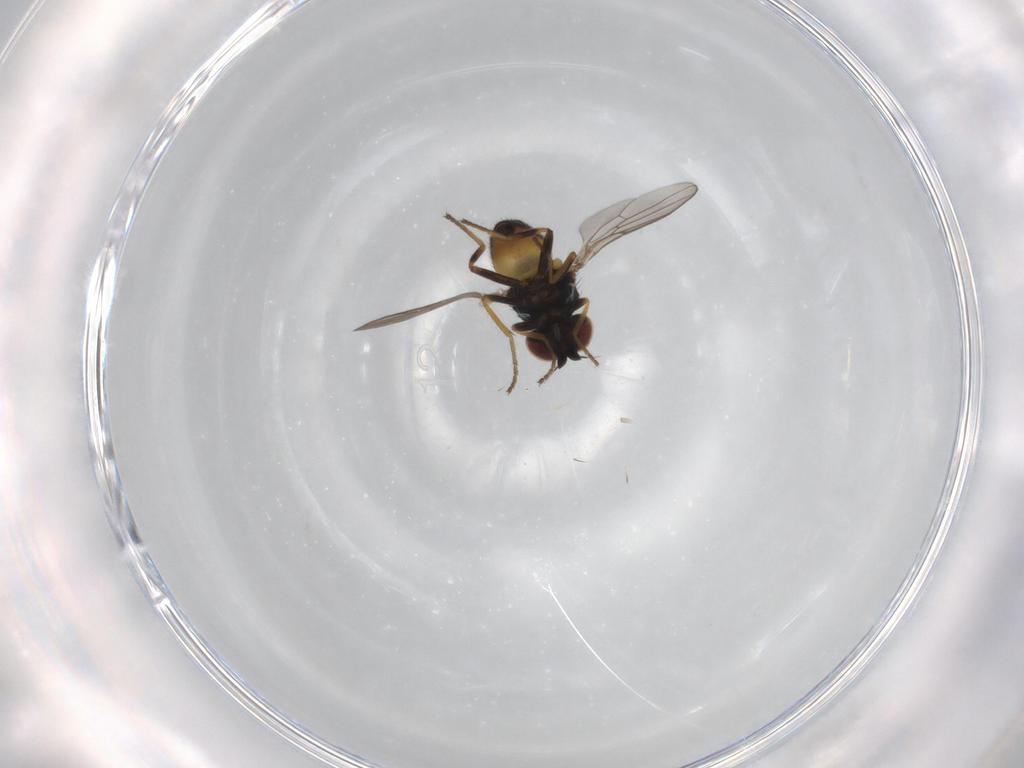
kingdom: Animalia
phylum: Arthropoda
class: Insecta
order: Diptera
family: Chloropidae
